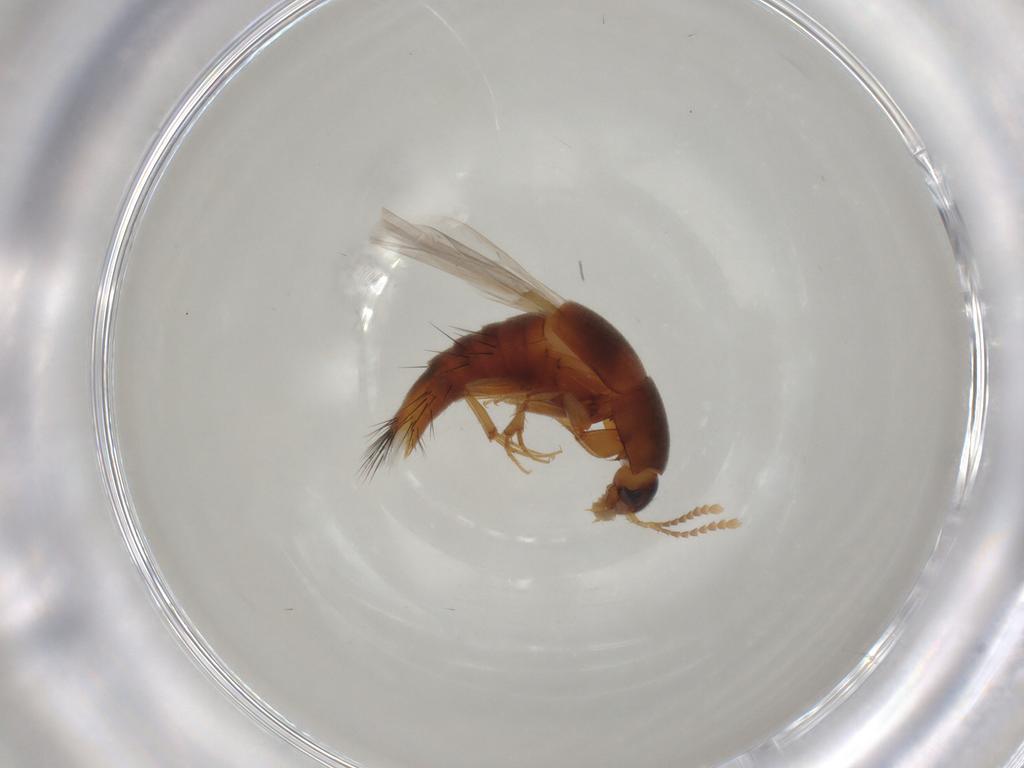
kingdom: Animalia
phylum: Arthropoda
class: Insecta
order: Coleoptera
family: Staphylinidae
